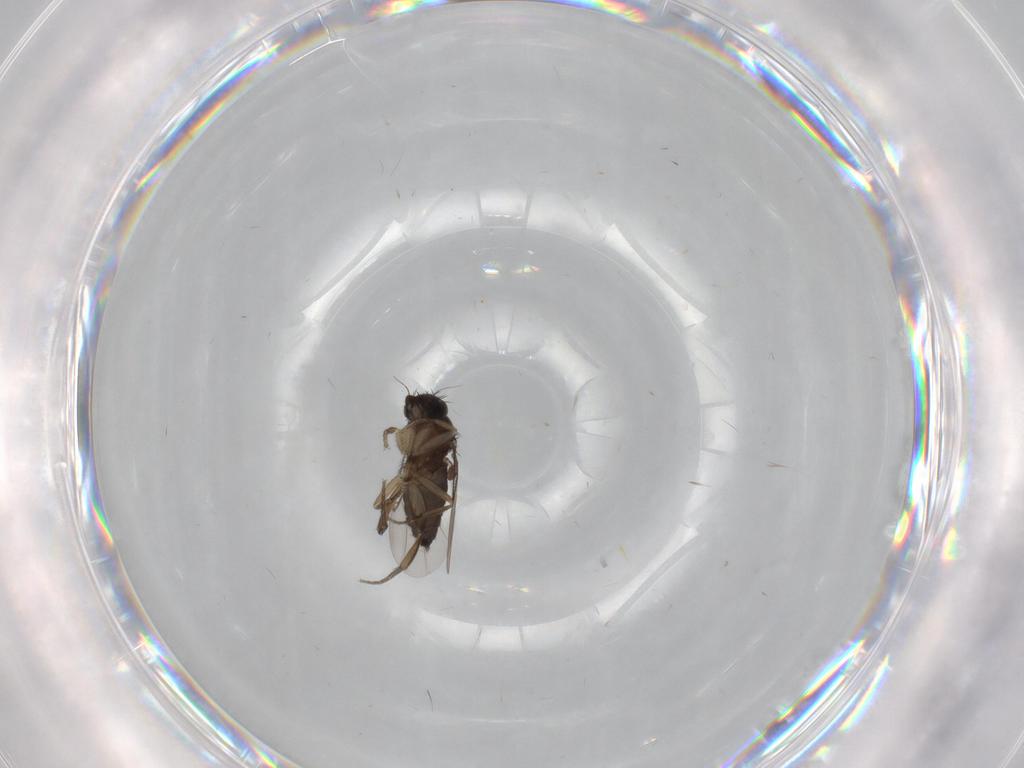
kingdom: Animalia
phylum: Arthropoda
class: Insecta
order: Diptera
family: Phoridae
